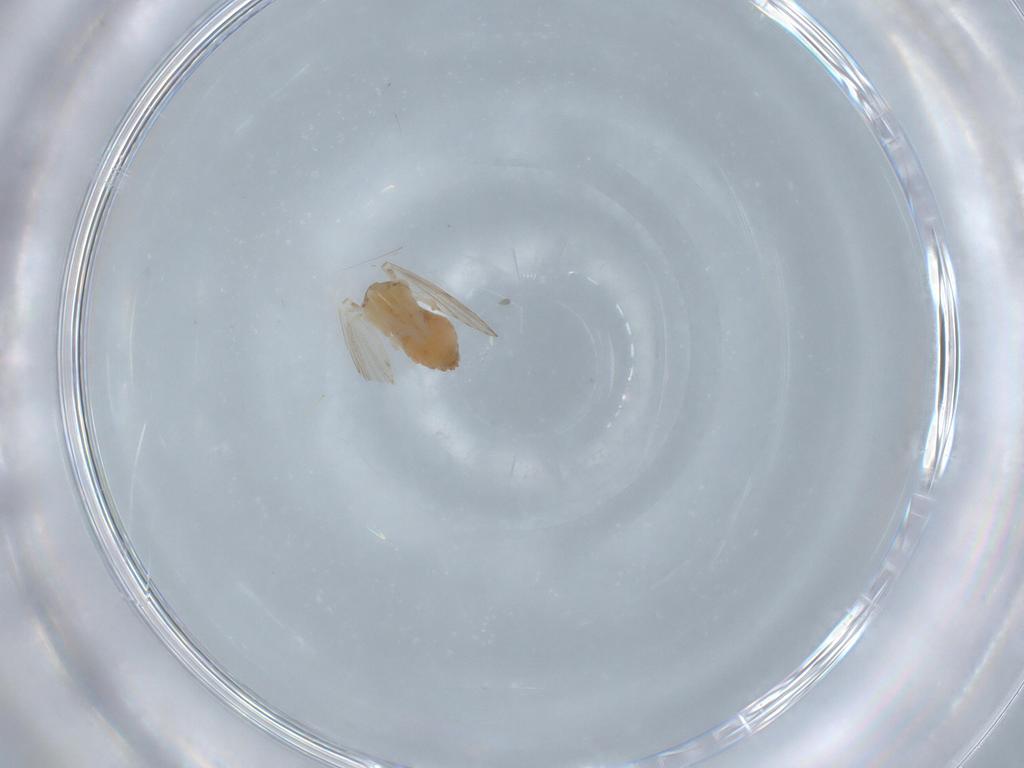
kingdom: Animalia
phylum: Arthropoda
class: Insecta
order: Diptera
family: Psychodidae
